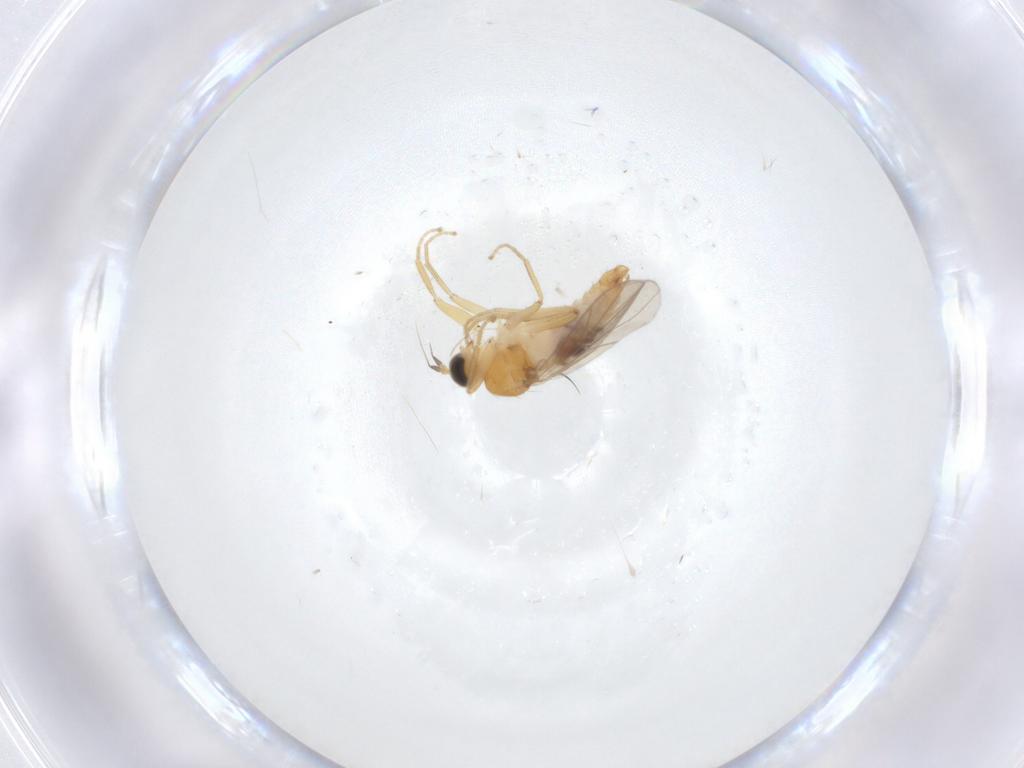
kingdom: Animalia
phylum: Arthropoda
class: Insecta
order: Diptera
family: Hybotidae
